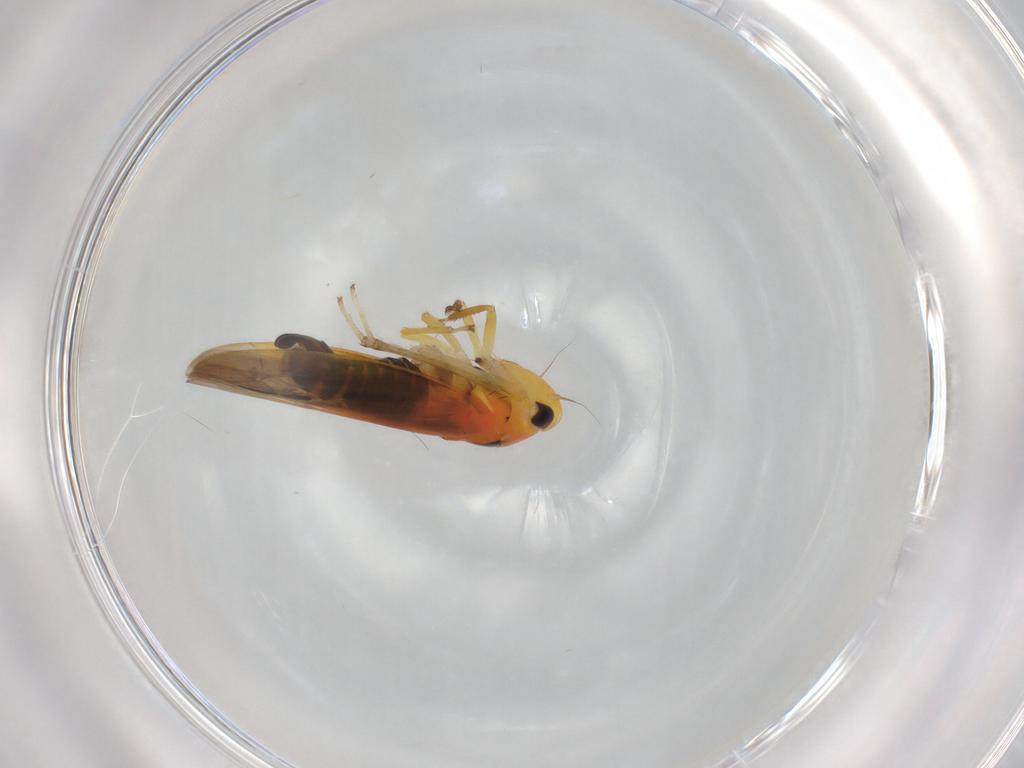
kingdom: Animalia
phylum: Arthropoda
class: Insecta
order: Hemiptera
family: Cicadellidae
